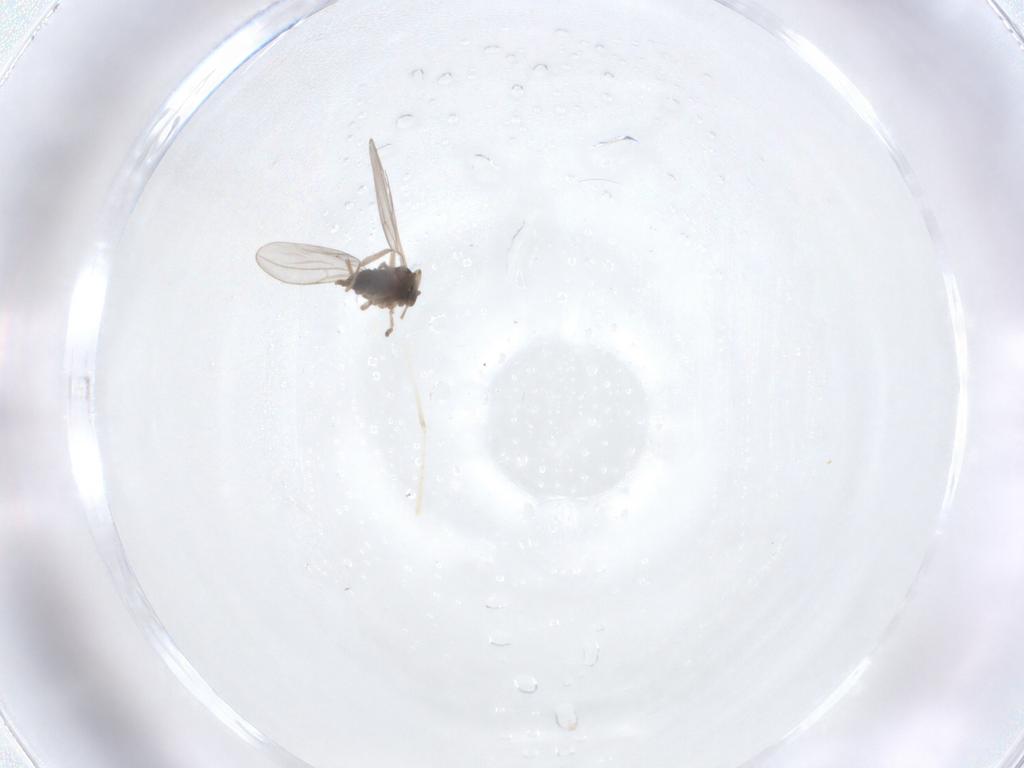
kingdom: Animalia
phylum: Arthropoda
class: Insecta
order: Diptera
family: Cecidomyiidae
